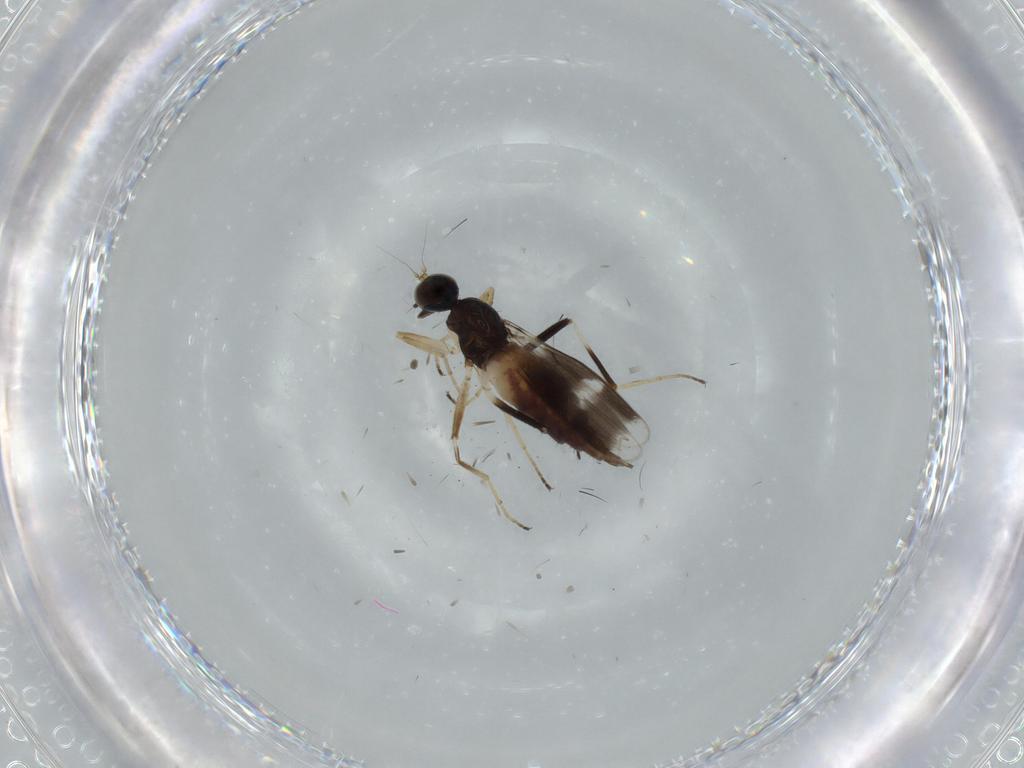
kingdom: Animalia
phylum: Arthropoda
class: Insecta
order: Diptera
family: Hybotidae
